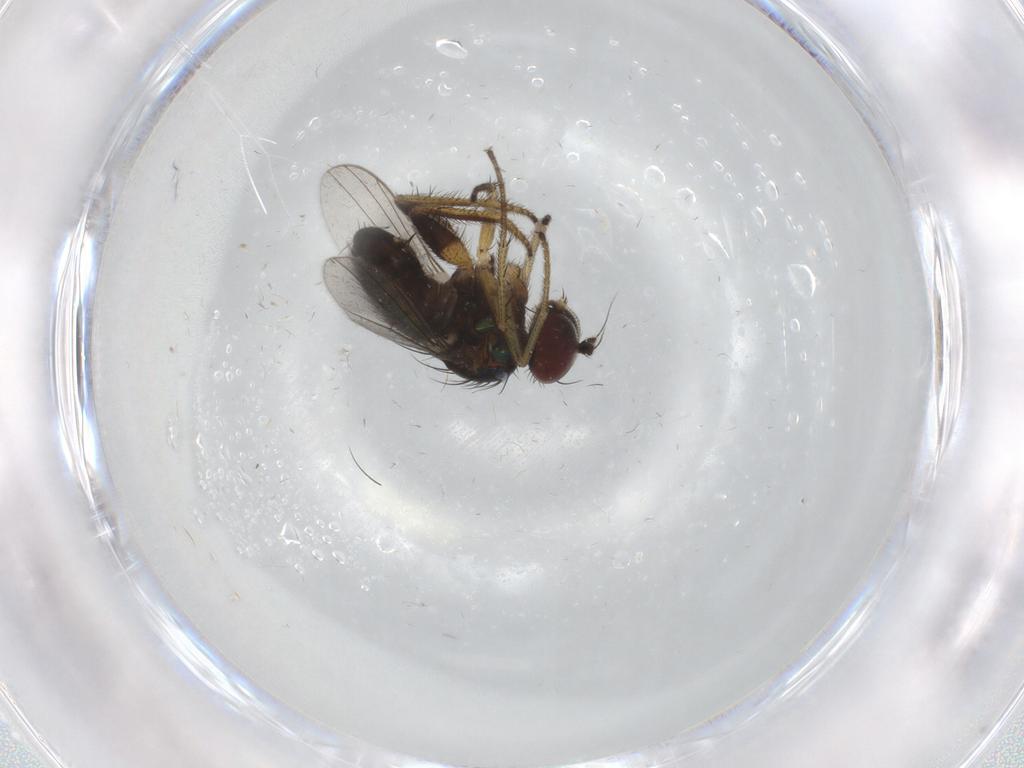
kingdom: Animalia
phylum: Arthropoda
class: Insecta
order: Diptera
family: Dolichopodidae
